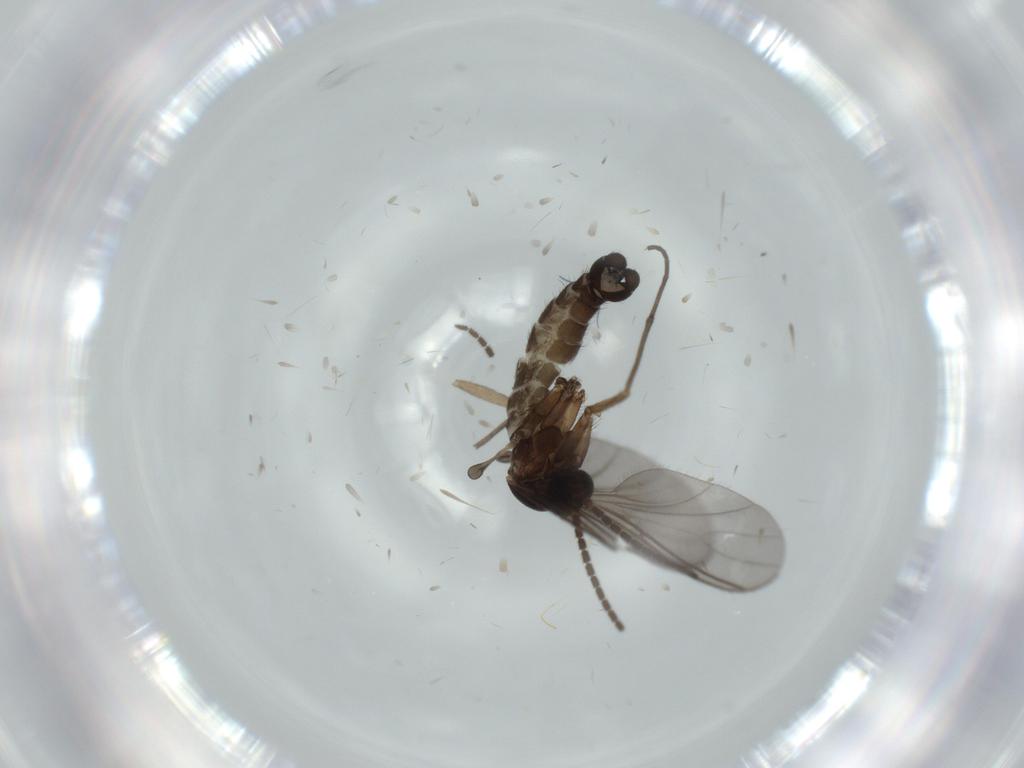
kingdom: Animalia
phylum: Arthropoda
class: Insecta
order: Diptera
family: Sciaridae
